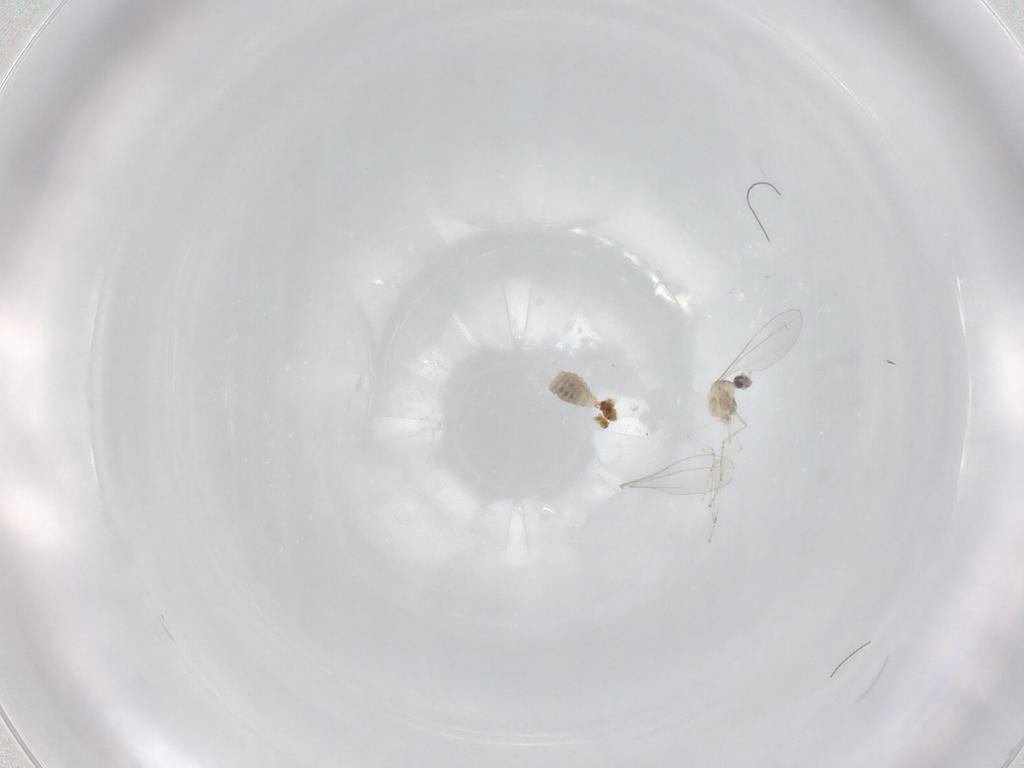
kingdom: Animalia
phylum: Arthropoda
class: Insecta
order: Diptera
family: Cecidomyiidae
